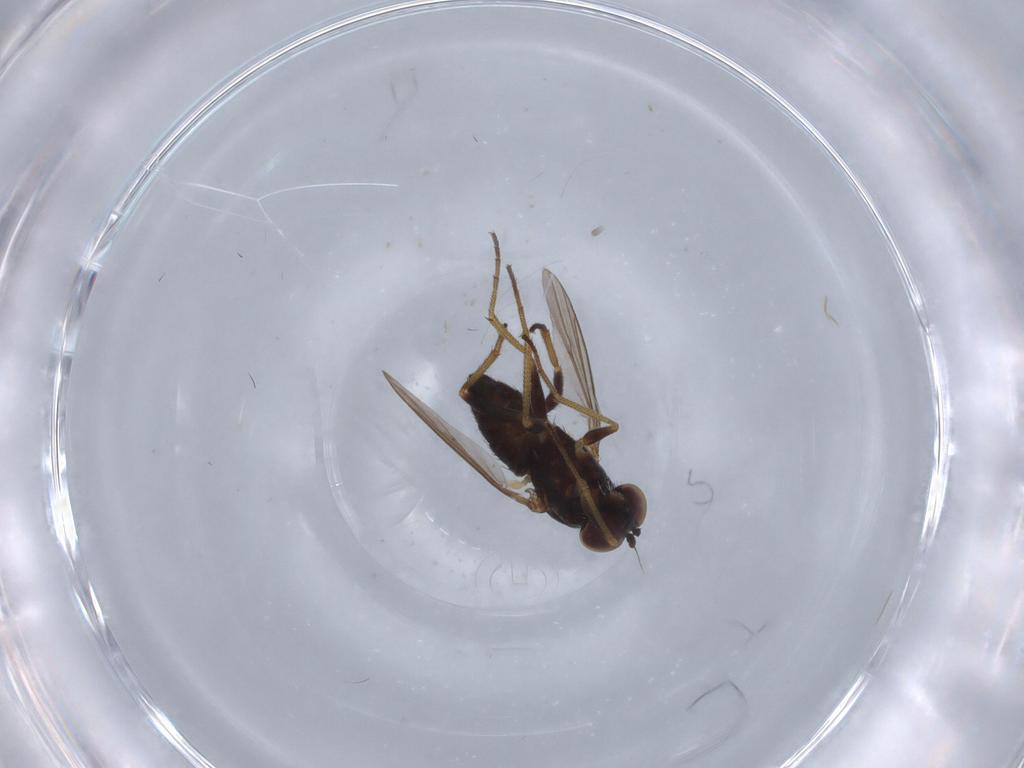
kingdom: Animalia
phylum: Arthropoda
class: Insecta
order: Diptera
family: Dolichopodidae
